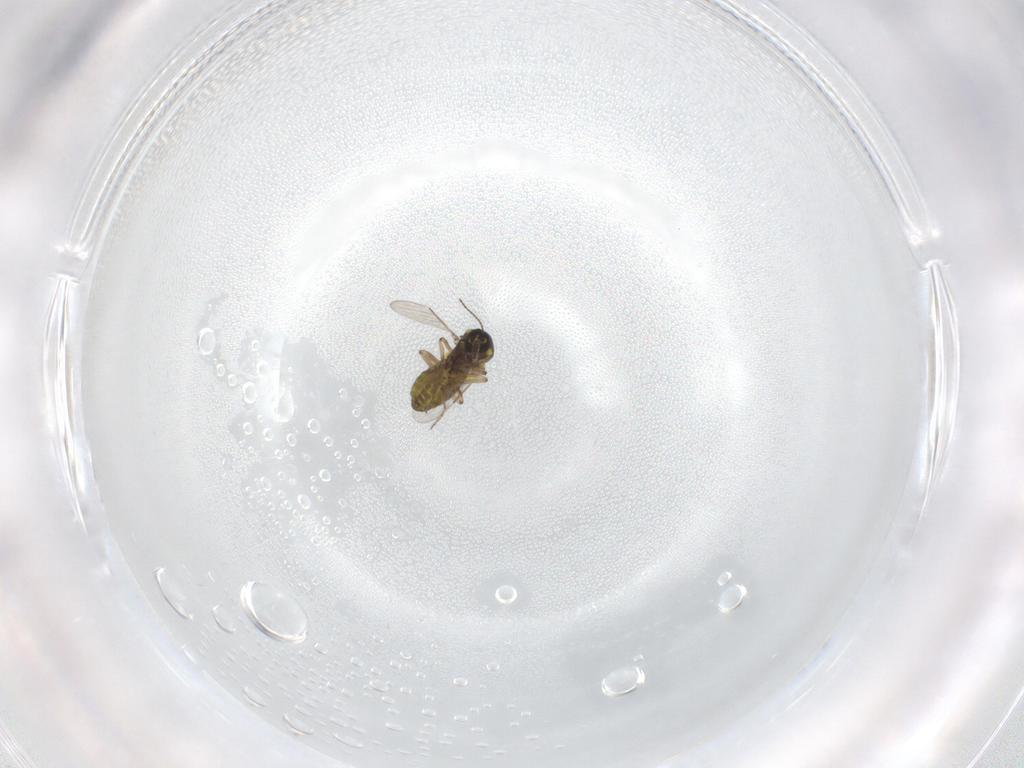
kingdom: Animalia
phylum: Arthropoda
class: Insecta
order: Diptera
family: Ceratopogonidae
